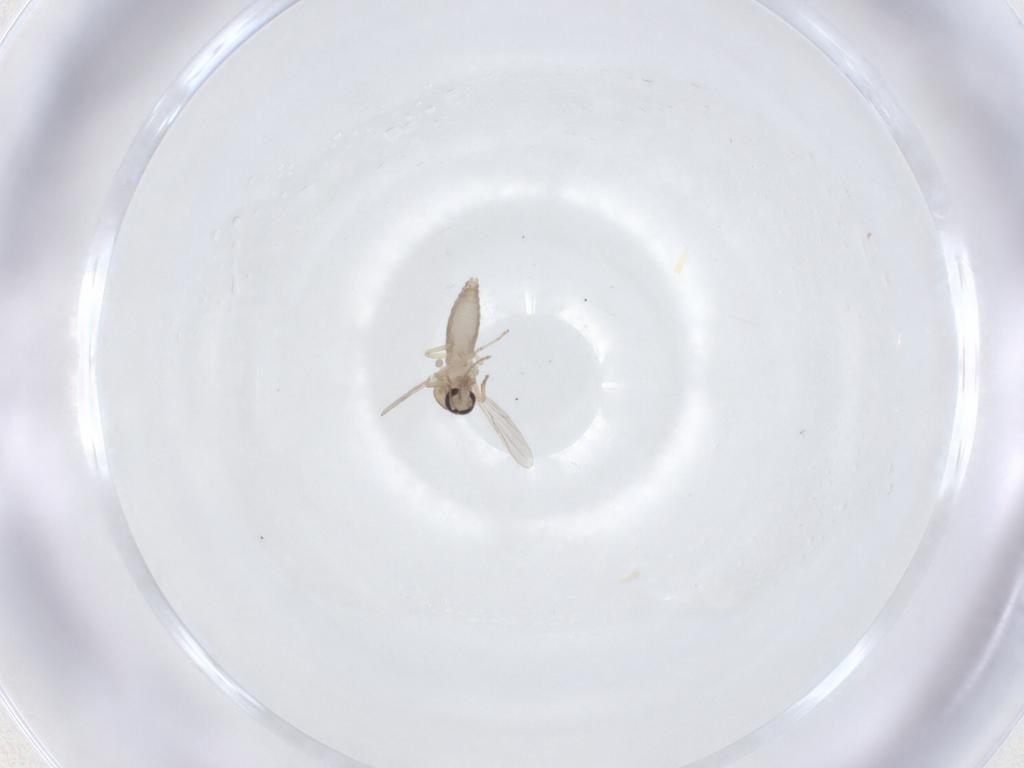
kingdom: Animalia
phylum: Arthropoda
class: Insecta
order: Diptera
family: Ceratopogonidae
